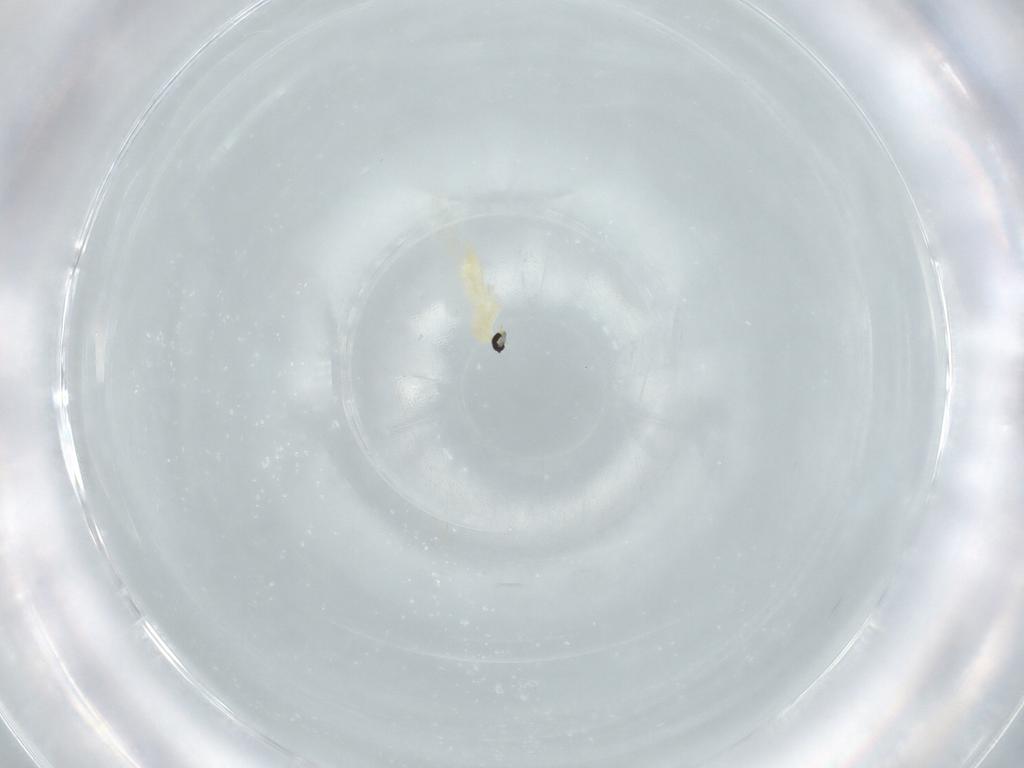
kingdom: Animalia
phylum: Arthropoda
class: Insecta
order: Diptera
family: Cecidomyiidae
